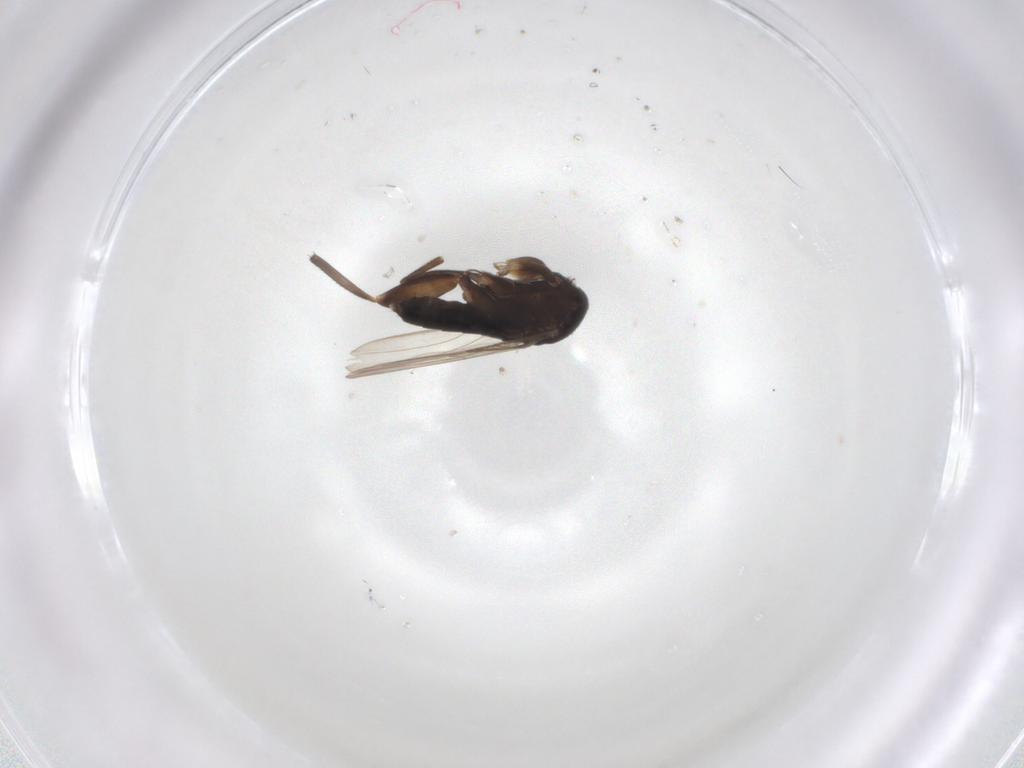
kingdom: Animalia
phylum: Arthropoda
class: Insecta
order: Diptera
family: Phoridae
